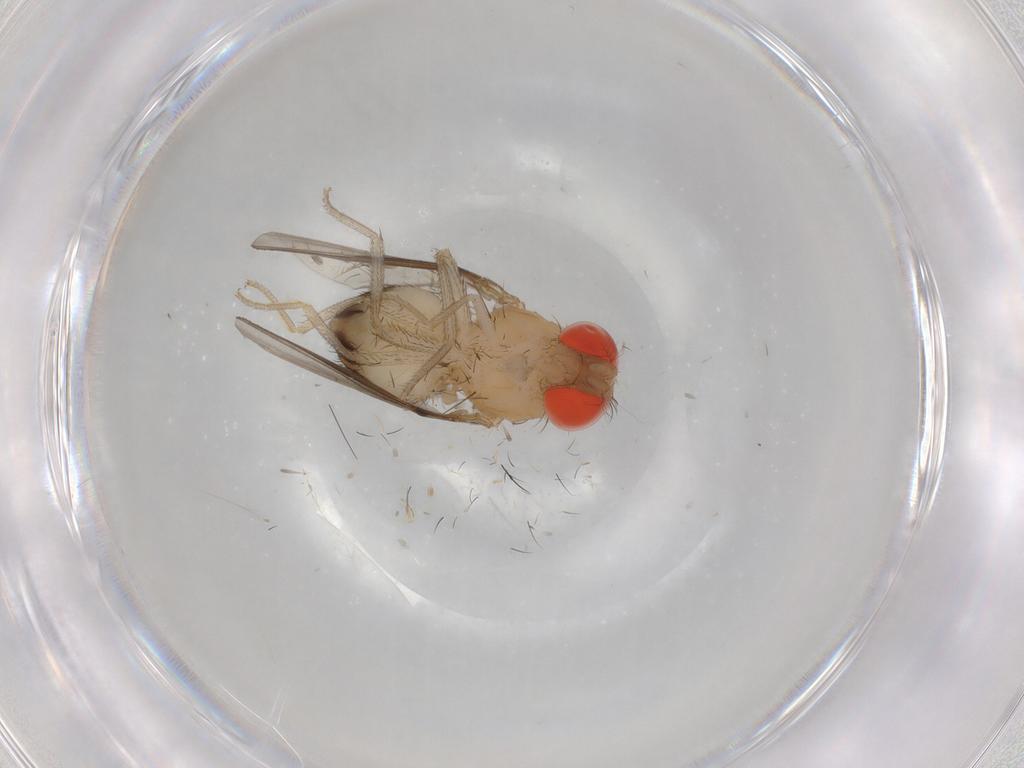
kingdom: Animalia
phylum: Arthropoda
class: Insecta
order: Diptera
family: Drosophilidae
